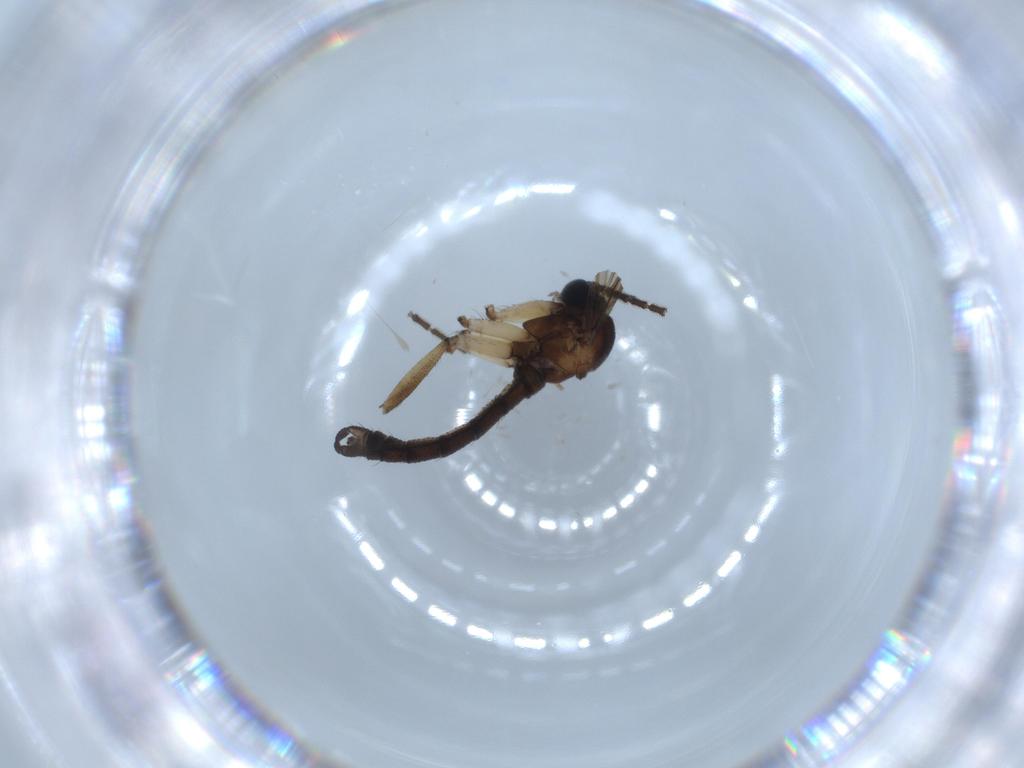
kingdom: Animalia
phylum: Arthropoda
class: Insecta
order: Diptera
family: Sciaridae
